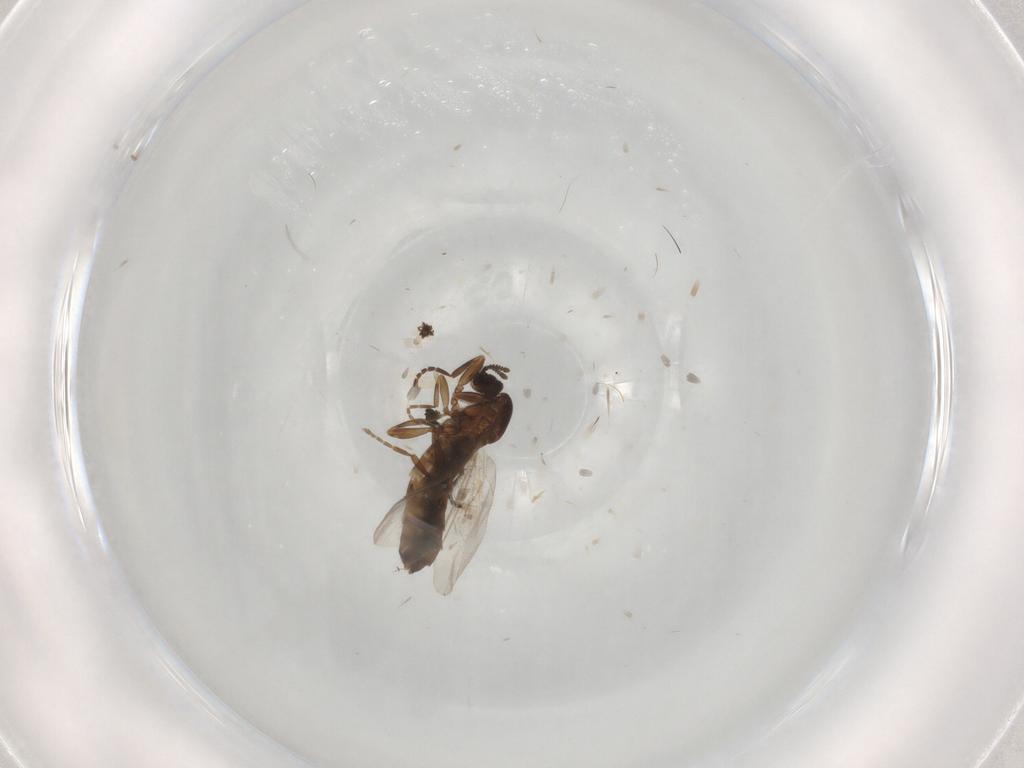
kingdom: Animalia
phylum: Arthropoda
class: Insecta
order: Diptera
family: Scatopsidae
